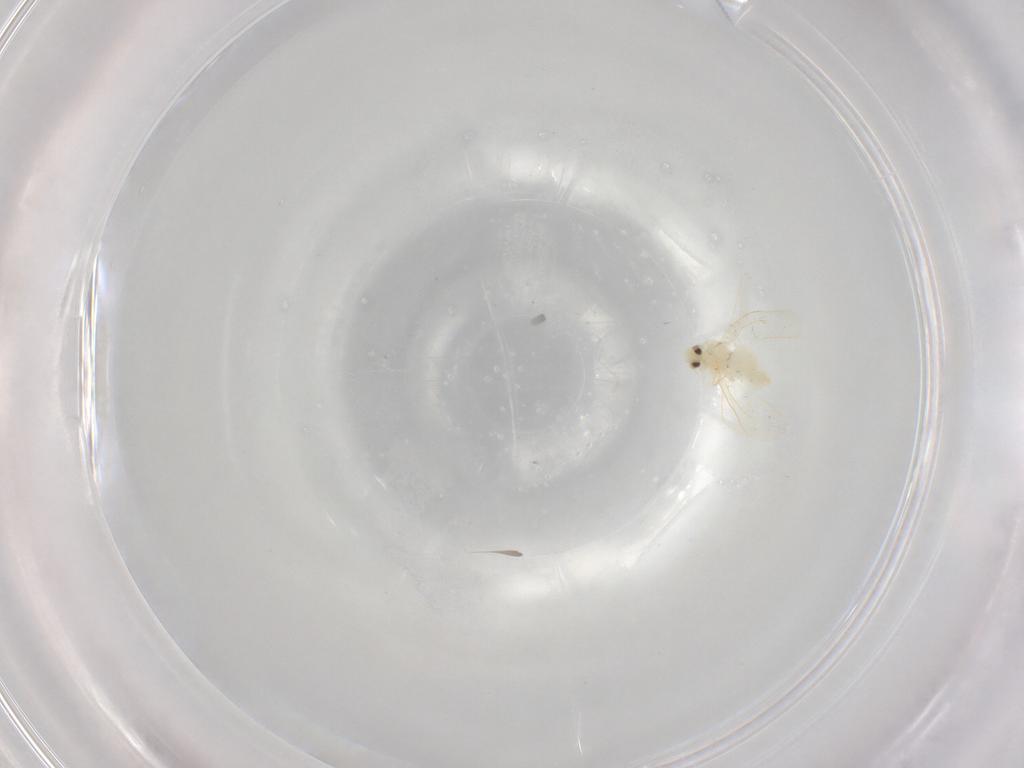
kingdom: Animalia
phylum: Arthropoda
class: Insecta
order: Hemiptera
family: Aleyrodidae
